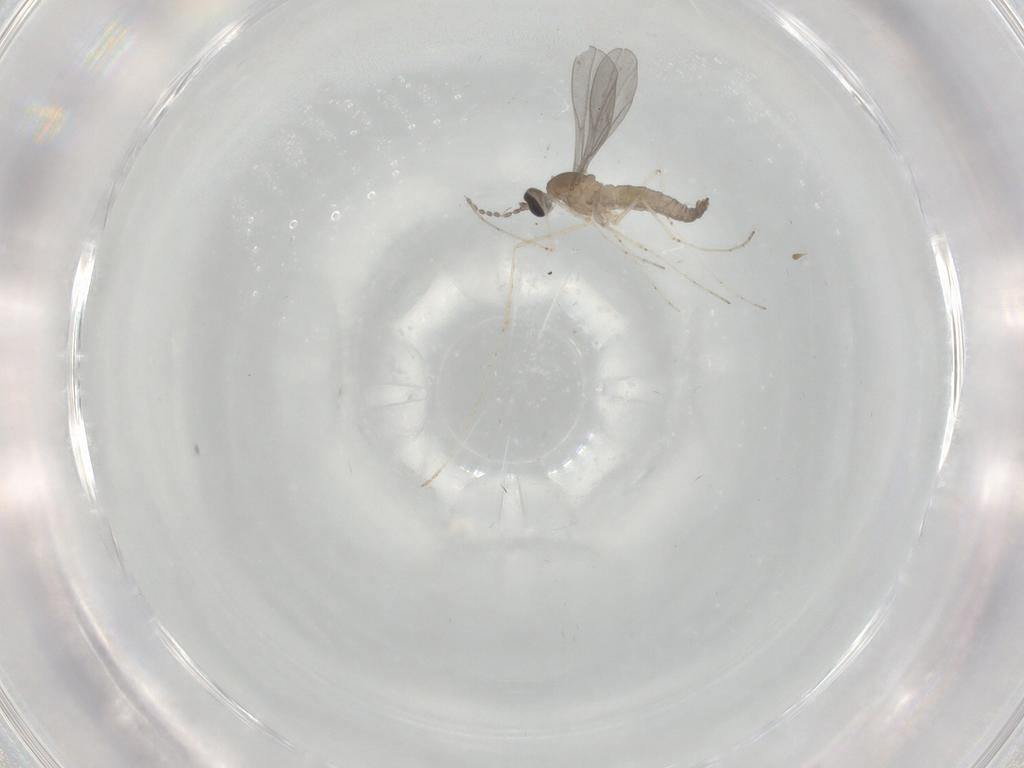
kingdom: Animalia
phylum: Arthropoda
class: Insecta
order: Diptera
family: Cecidomyiidae
